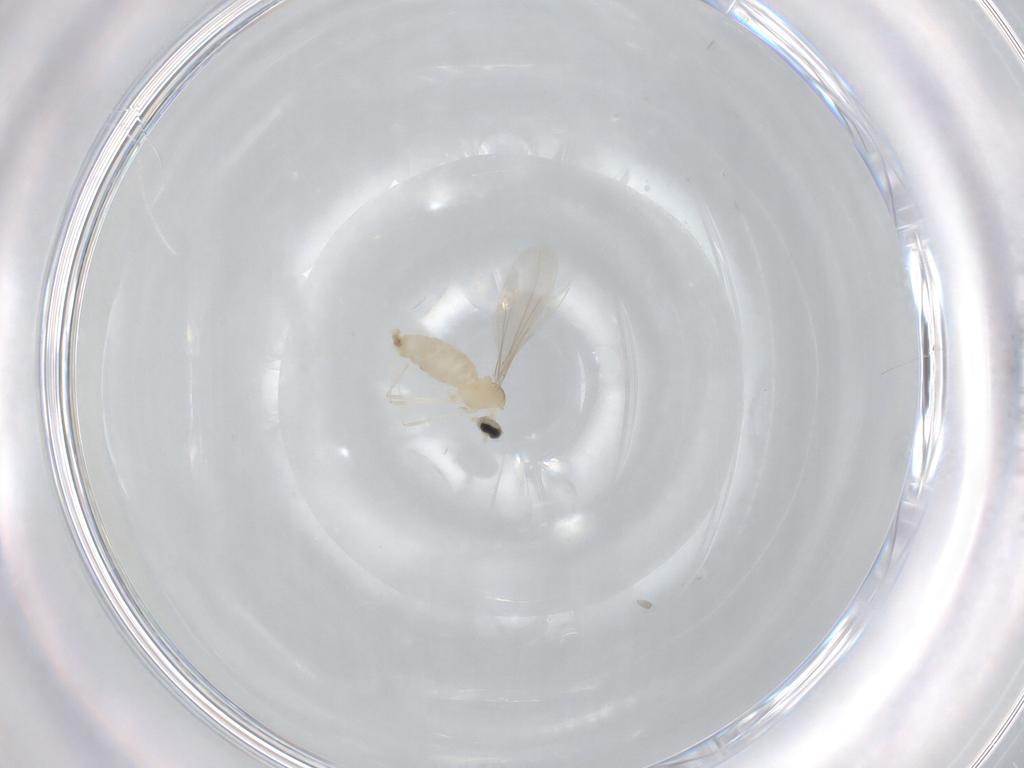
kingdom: Animalia
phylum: Arthropoda
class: Insecta
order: Diptera
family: Cecidomyiidae
